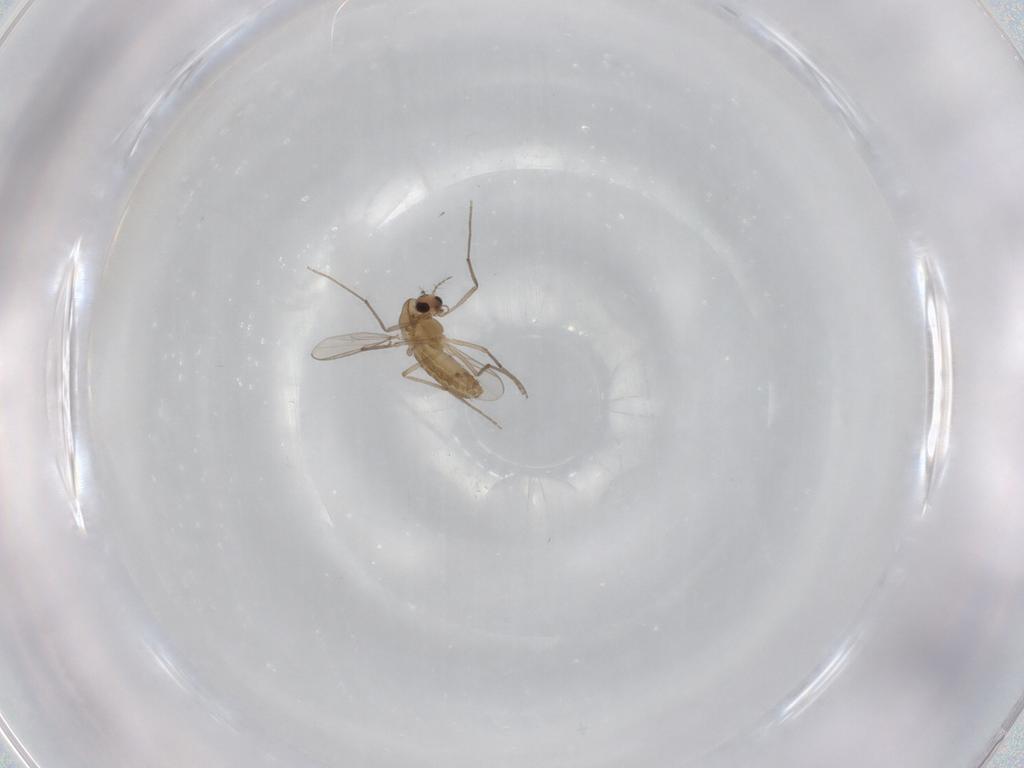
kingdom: Animalia
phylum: Arthropoda
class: Insecta
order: Diptera
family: Chironomidae
